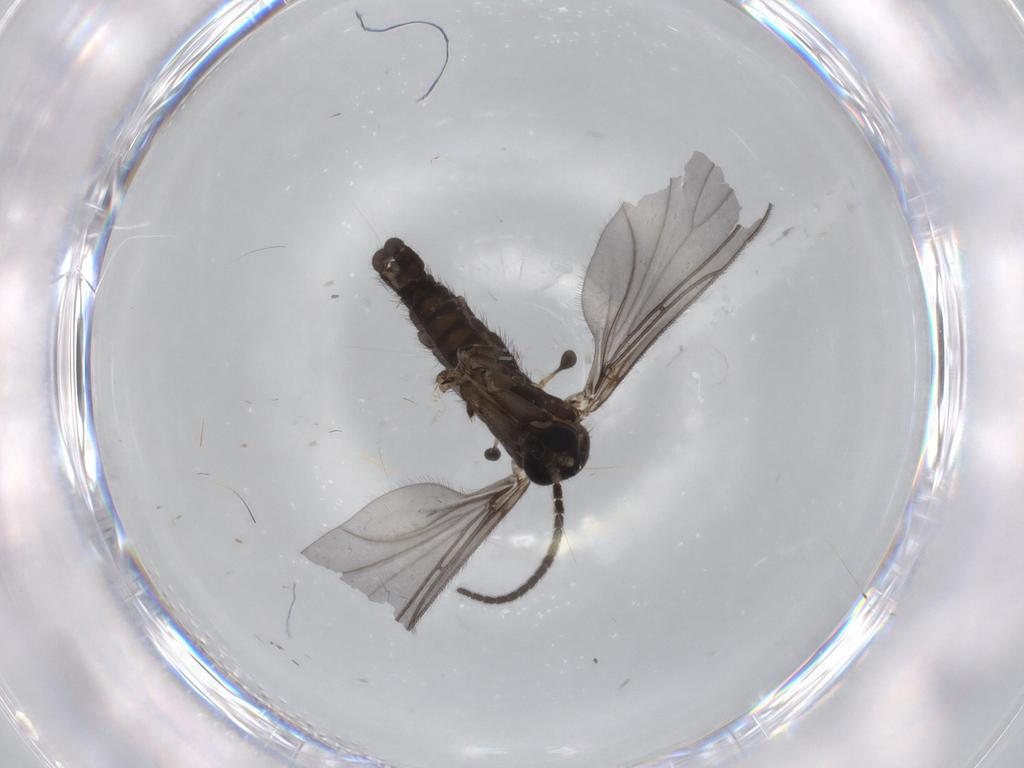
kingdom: Animalia
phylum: Arthropoda
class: Insecta
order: Diptera
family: Sciaridae
